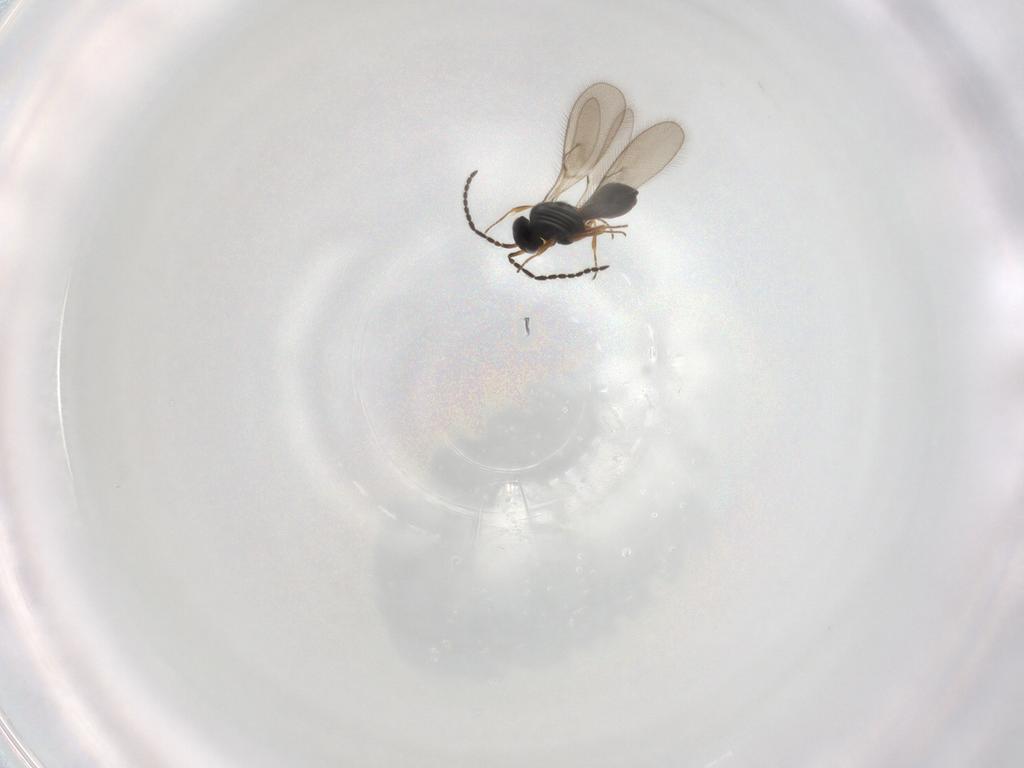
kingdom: Animalia
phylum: Arthropoda
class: Insecta
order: Hymenoptera
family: Scelionidae
